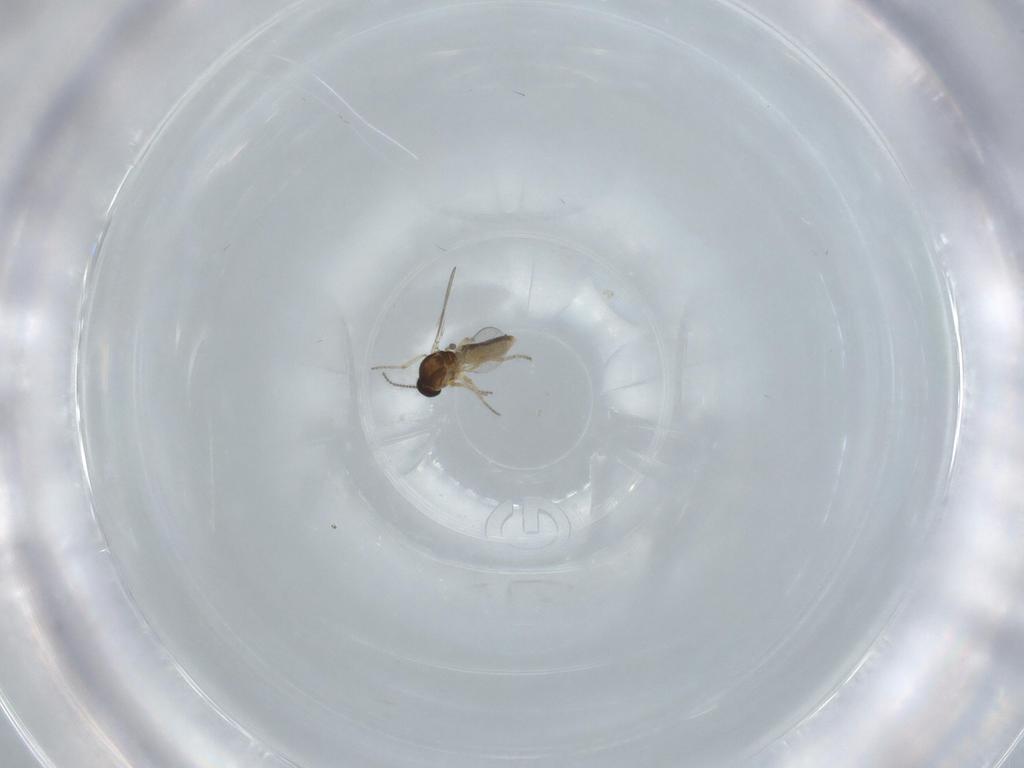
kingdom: Animalia
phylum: Arthropoda
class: Insecta
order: Diptera
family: Ceratopogonidae
